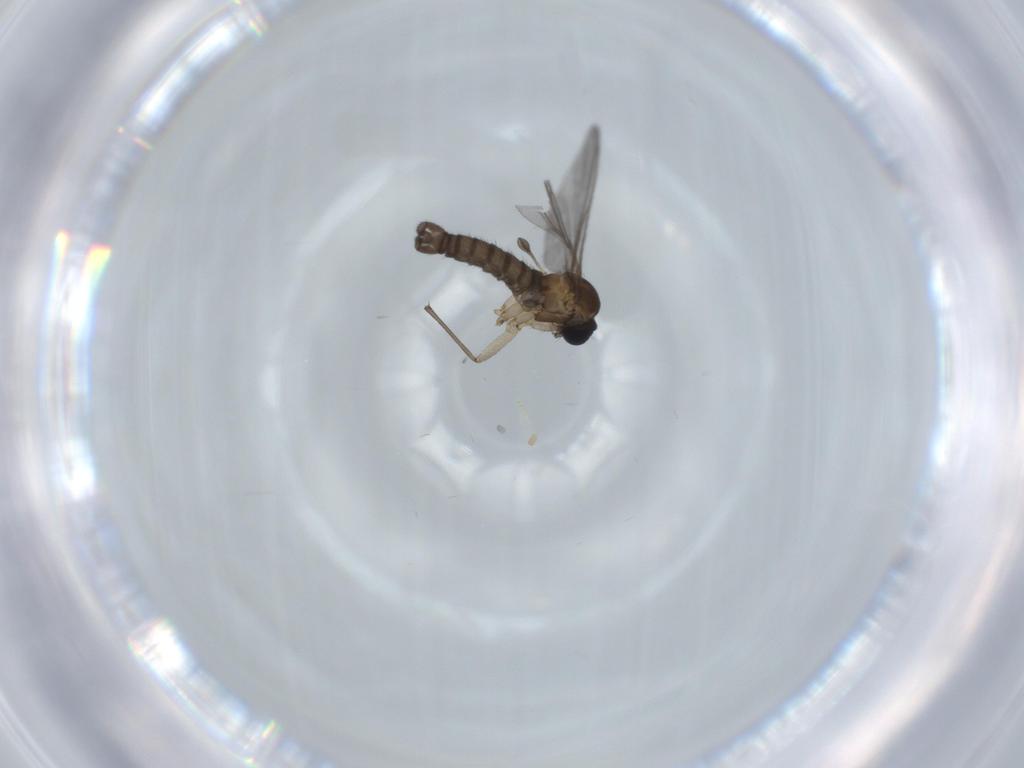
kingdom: Animalia
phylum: Arthropoda
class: Insecta
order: Diptera
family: Sciaridae
